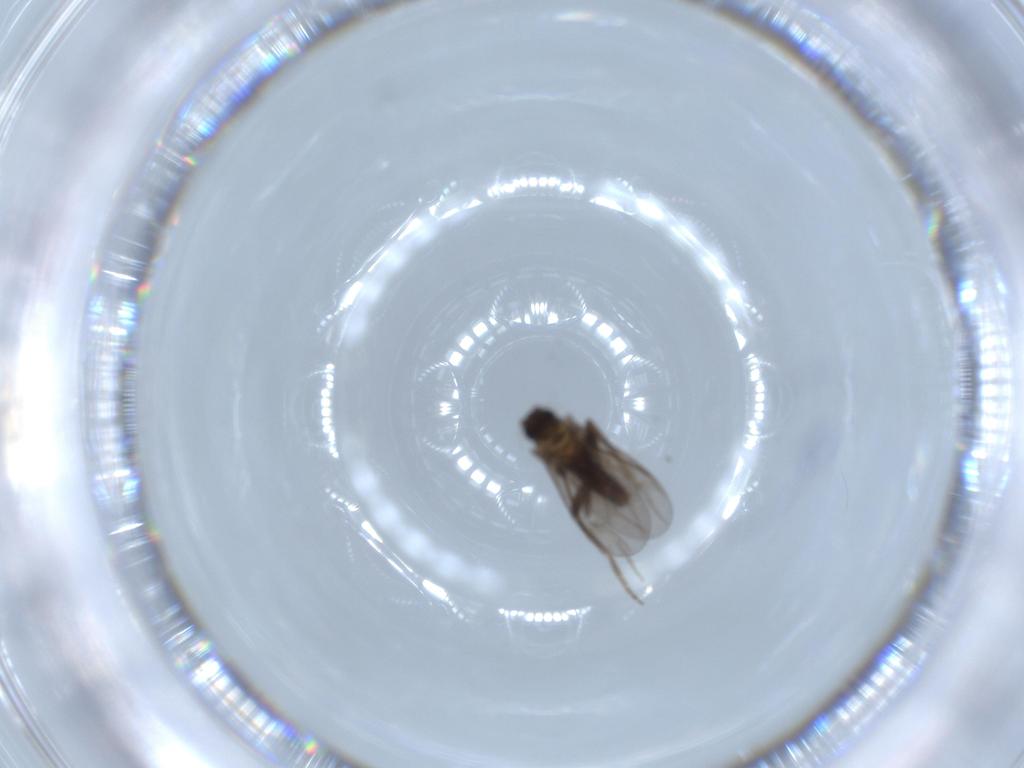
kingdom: Animalia
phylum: Arthropoda
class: Insecta
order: Diptera
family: Phoridae
